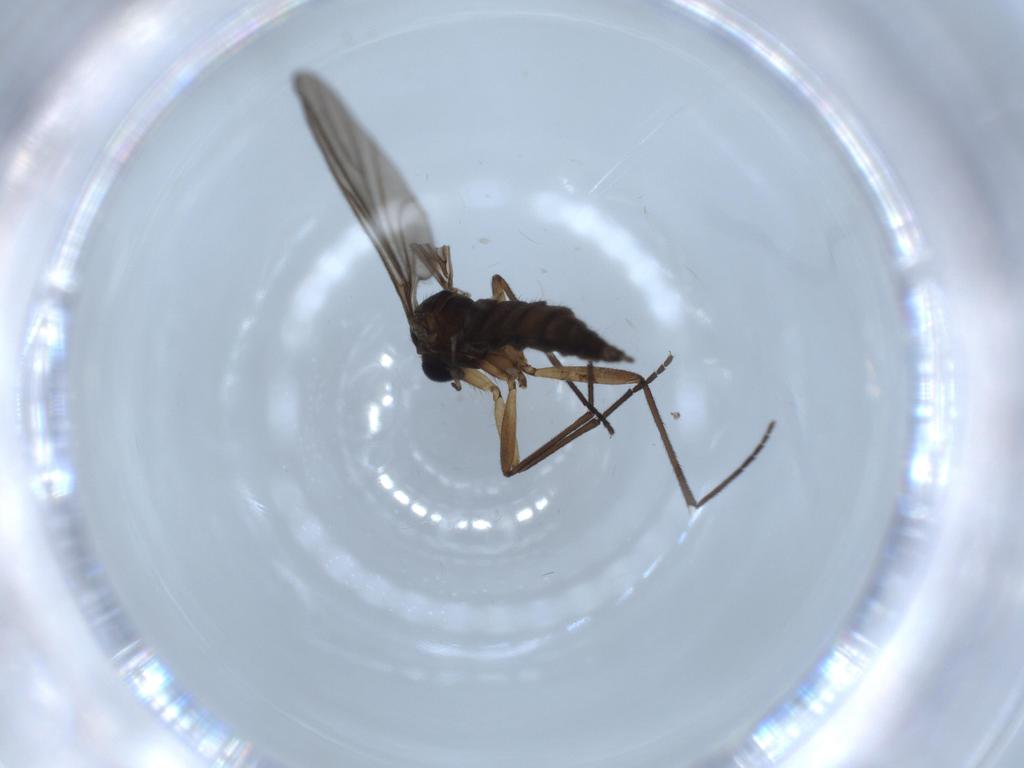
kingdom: Animalia
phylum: Arthropoda
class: Insecta
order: Diptera
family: Sciaridae
